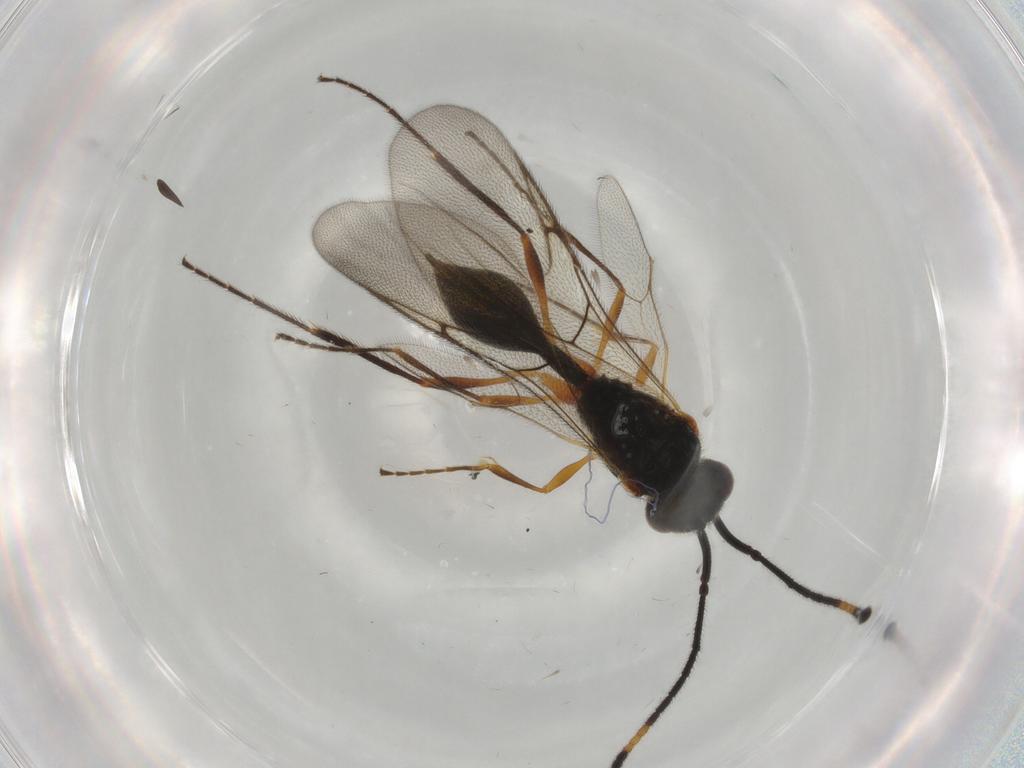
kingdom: Animalia
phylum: Arthropoda
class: Insecta
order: Hymenoptera
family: Diapriidae
